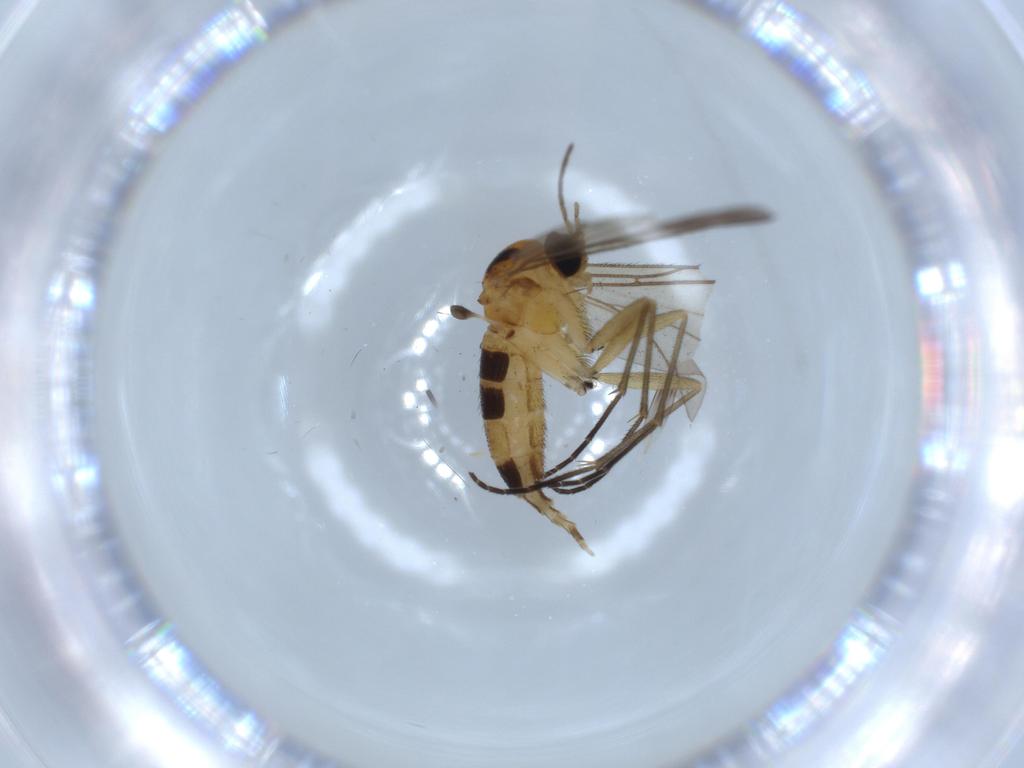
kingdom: Animalia
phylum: Arthropoda
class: Insecta
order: Diptera
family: Sciaridae
